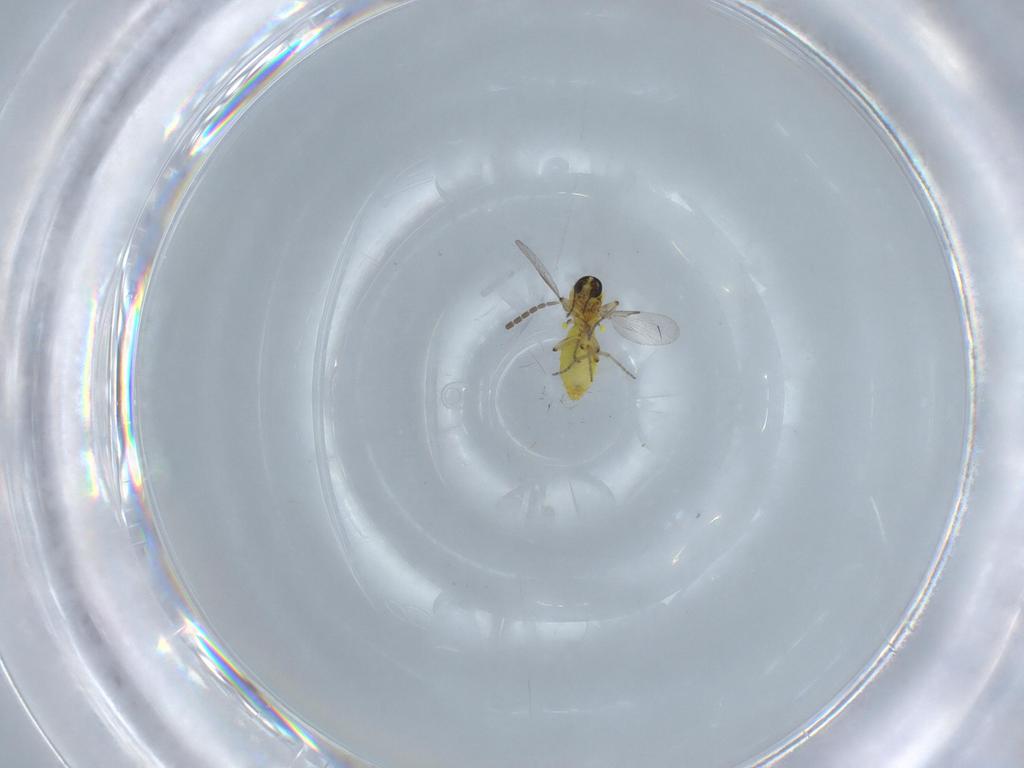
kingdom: Animalia
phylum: Arthropoda
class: Insecta
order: Diptera
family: Ceratopogonidae
